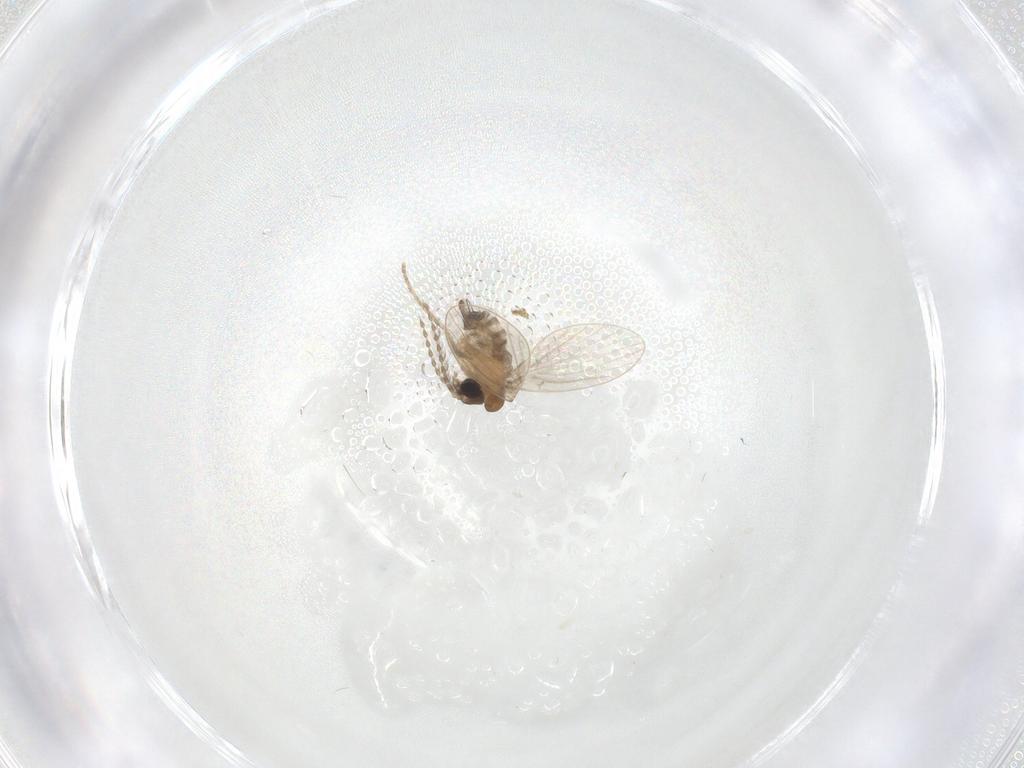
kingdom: Animalia
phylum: Arthropoda
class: Insecta
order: Diptera
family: Psychodidae
